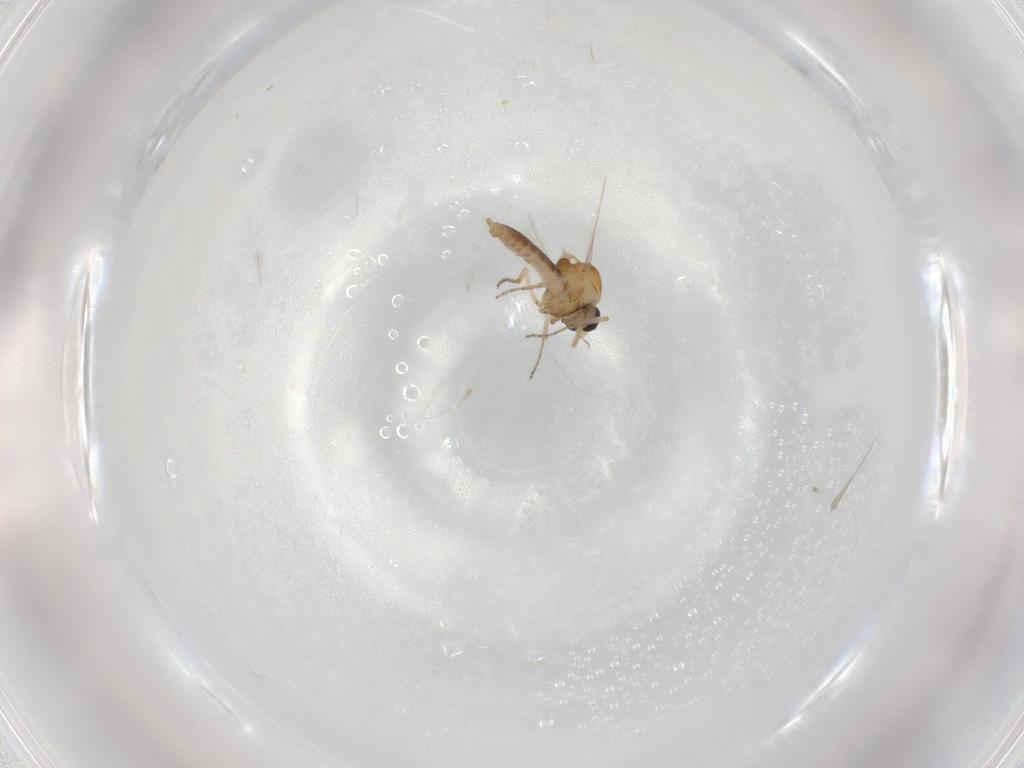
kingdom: Animalia
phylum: Arthropoda
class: Insecta
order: Diptera
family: Ceratopogonidae
